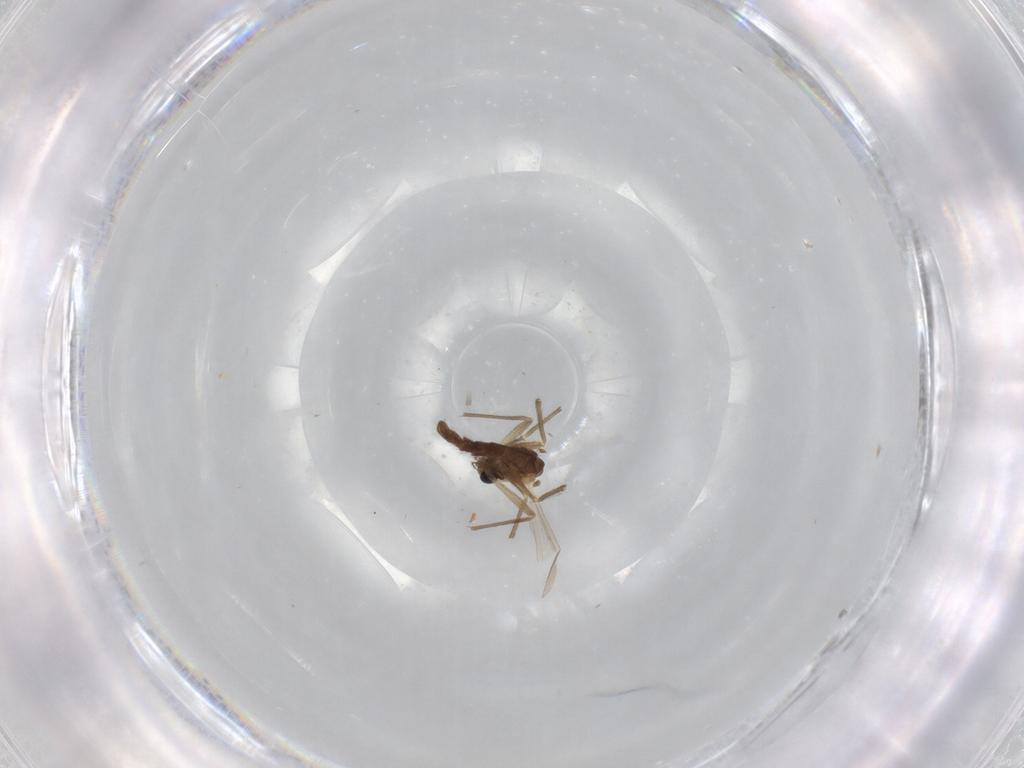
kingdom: Animalia
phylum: Arthropoda
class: Insecta
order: Diptera
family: Chironomidae
